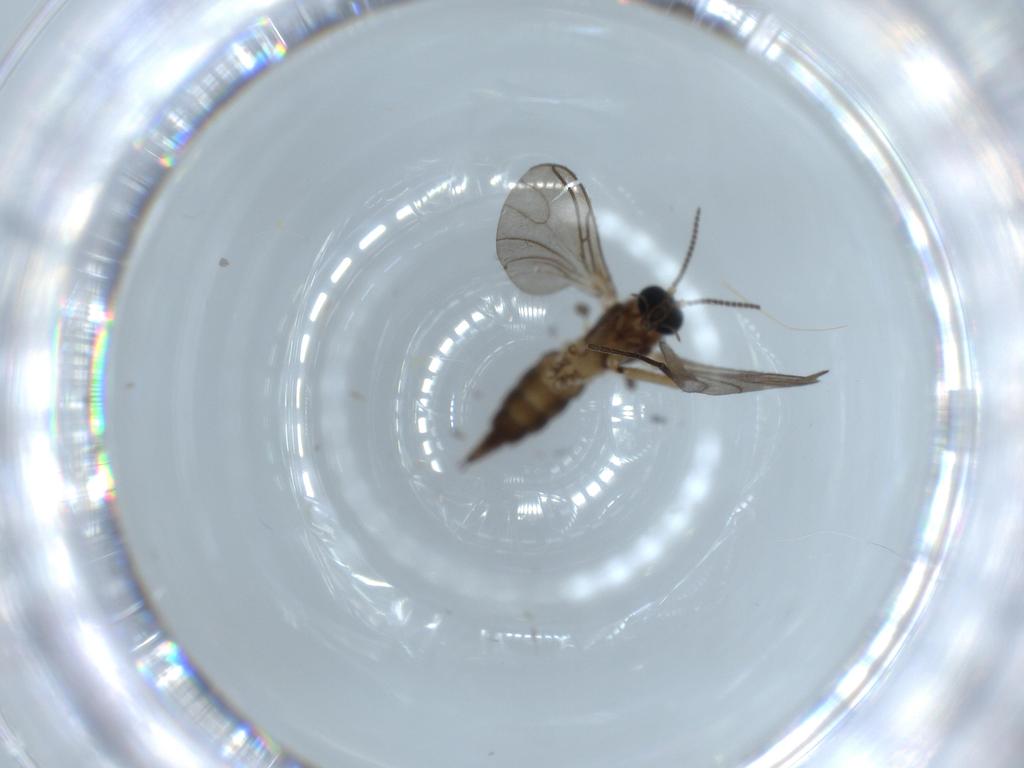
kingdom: Animalia
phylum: Arthropoda
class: Insecta
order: Diptera
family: Sciaridae
